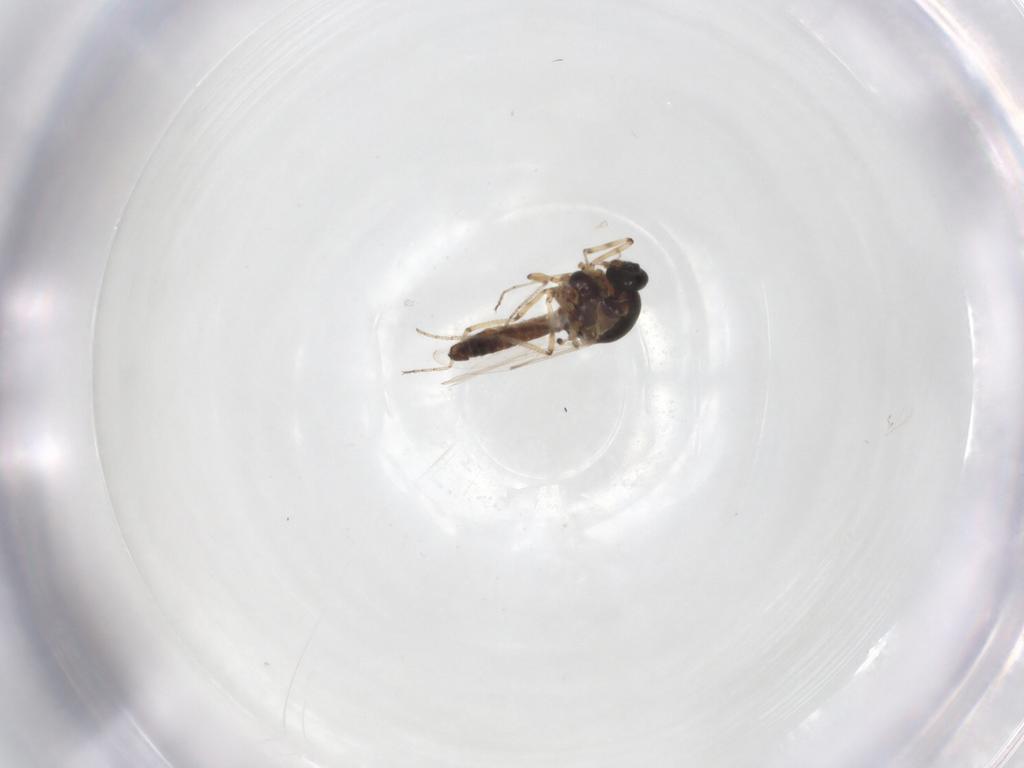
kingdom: Animalia
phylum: Arthropoda
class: Insecta
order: Diptera
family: Ceratopogonidae
